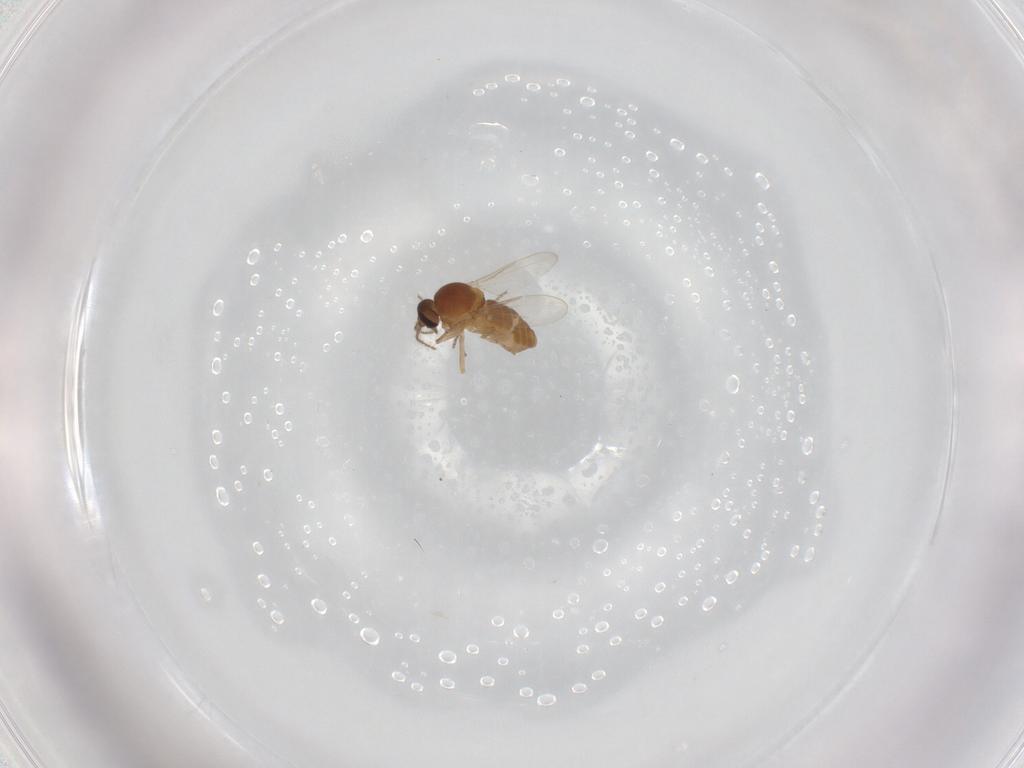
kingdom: Animalia
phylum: Arthropoda
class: Insecta
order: Diptera
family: Ceratopogonidae
